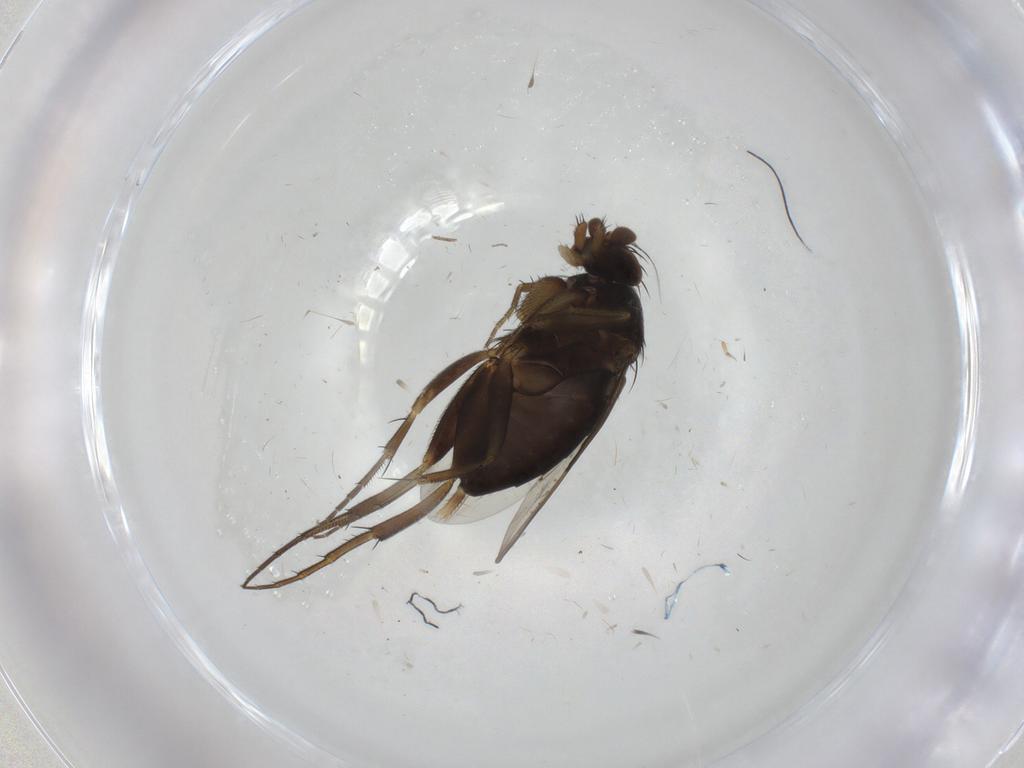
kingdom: Animalia
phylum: Arthropoda
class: Insecta
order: Diptera
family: Phoridae
